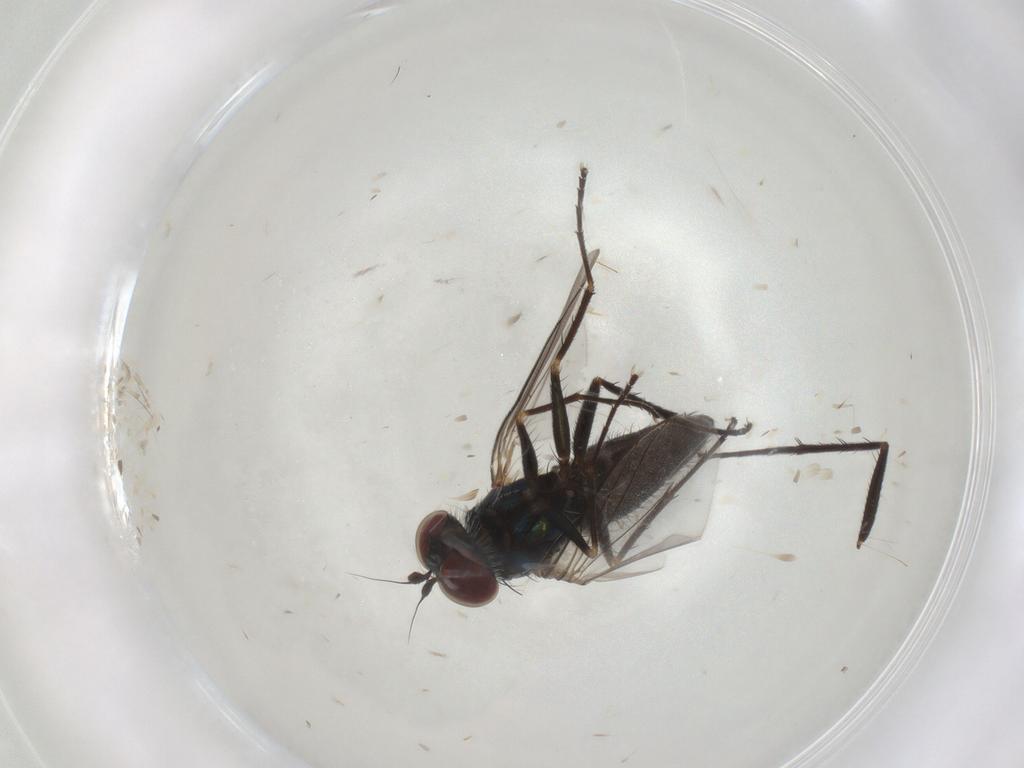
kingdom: Animalia
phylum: Arthropoda
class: Insecta
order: Diptera
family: Dolichopodidae
